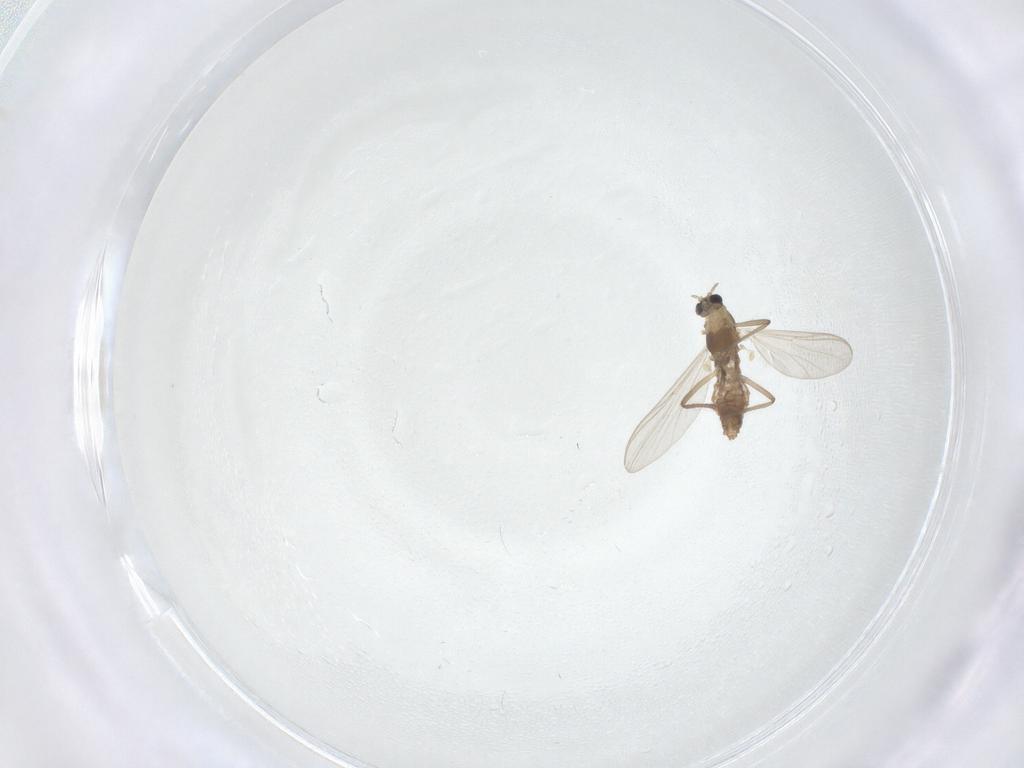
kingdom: Animalia
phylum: Arthropoda
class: Insecta
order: Diptera
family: Chironomidae
